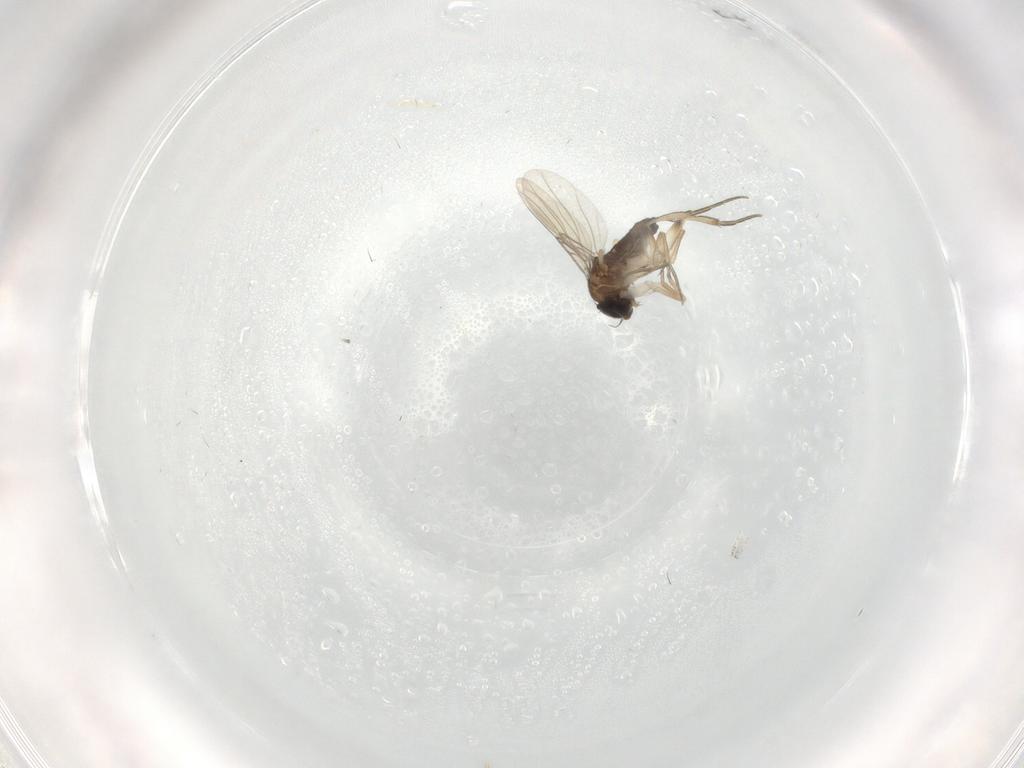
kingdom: Animalia
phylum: Arthropoda
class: Insecta
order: Diptera
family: Phoridae
